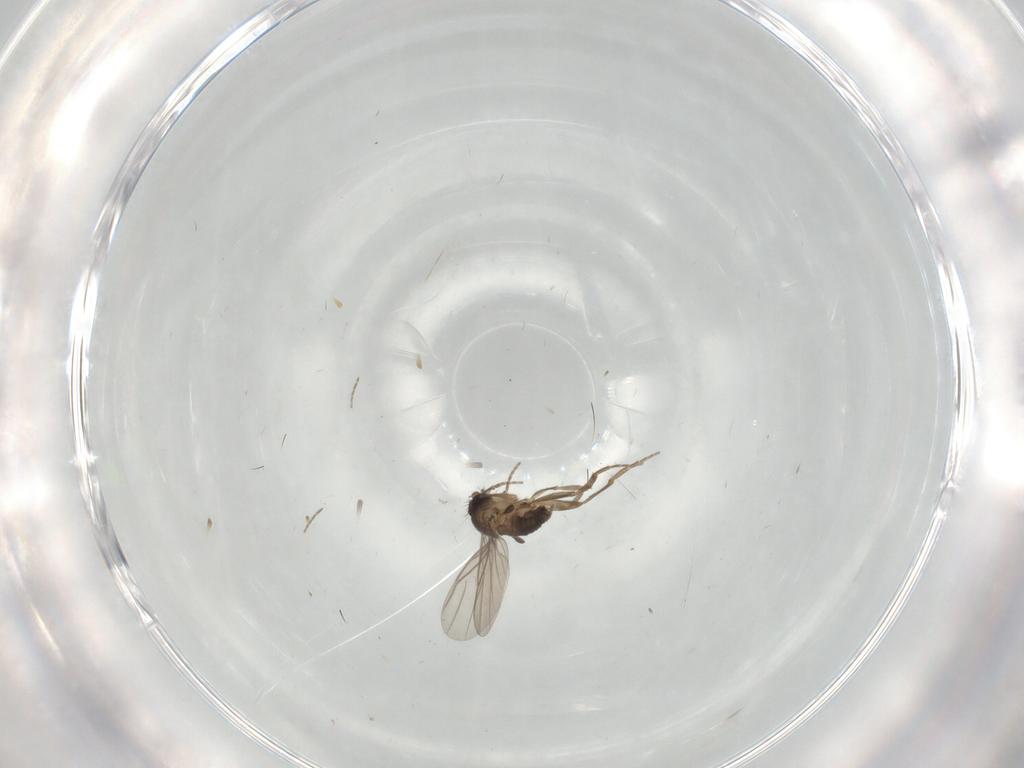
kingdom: Animalia
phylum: Arthropoda
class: Insecta
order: Diptera
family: Phoridae
